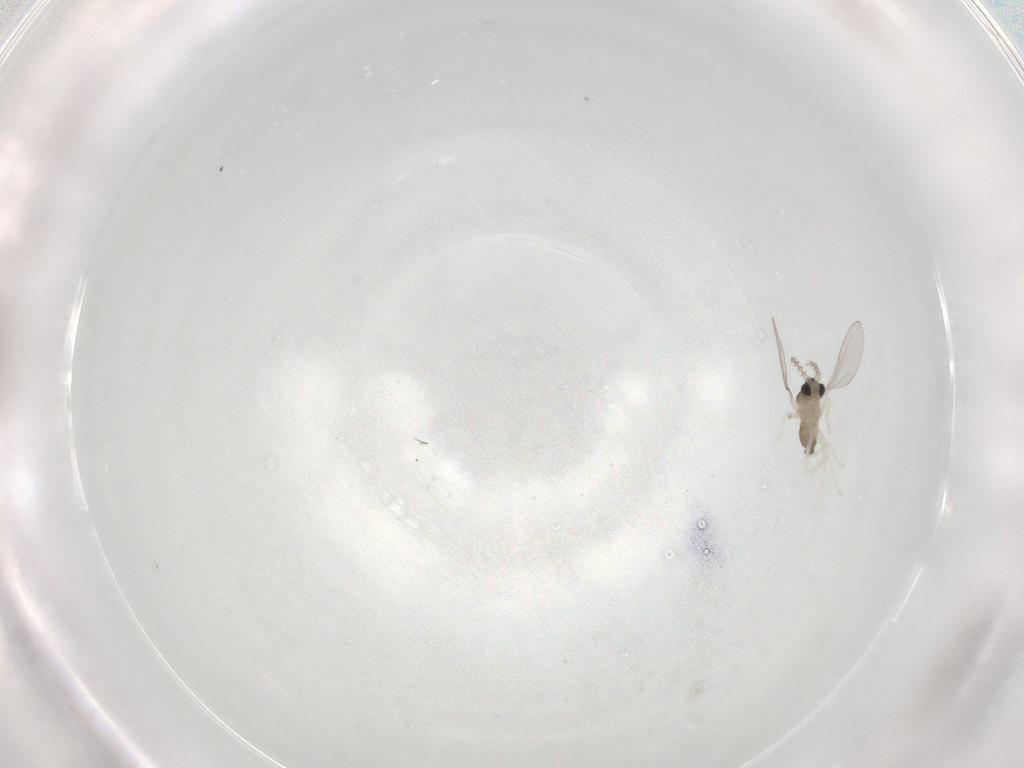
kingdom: Animalia
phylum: Arthropoda
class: Insecta
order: Diptera
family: Cecidomyiidae
